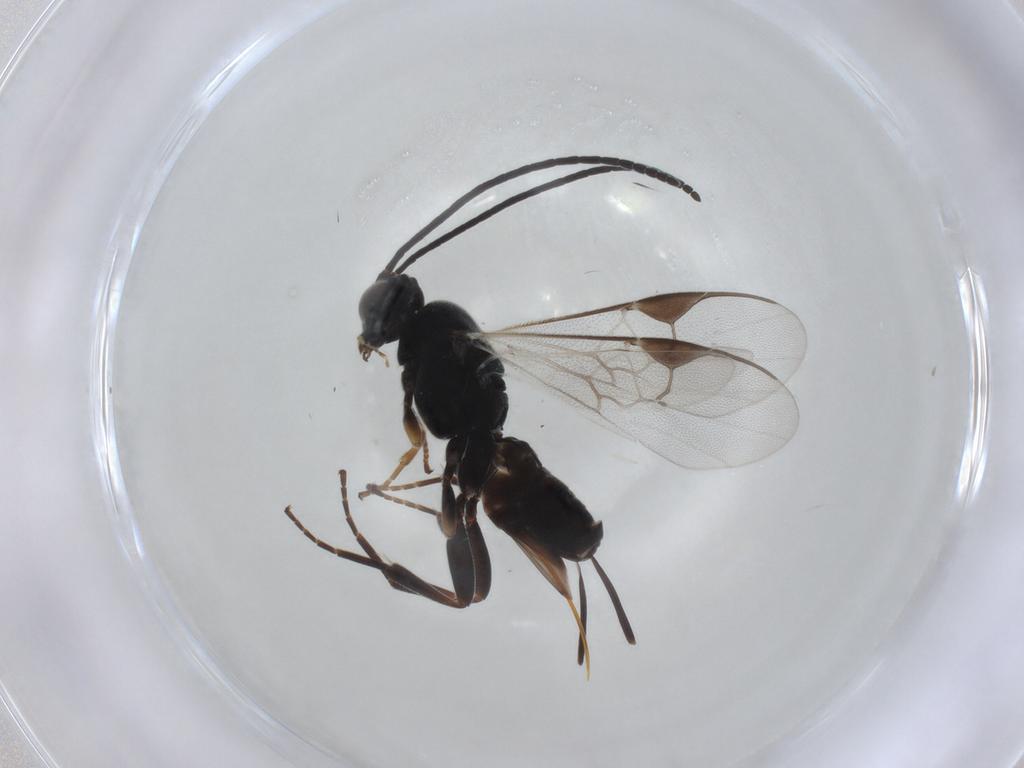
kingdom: Animalia
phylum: Arthropoda
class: Insecta
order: Hymenoptera
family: Braconidae
